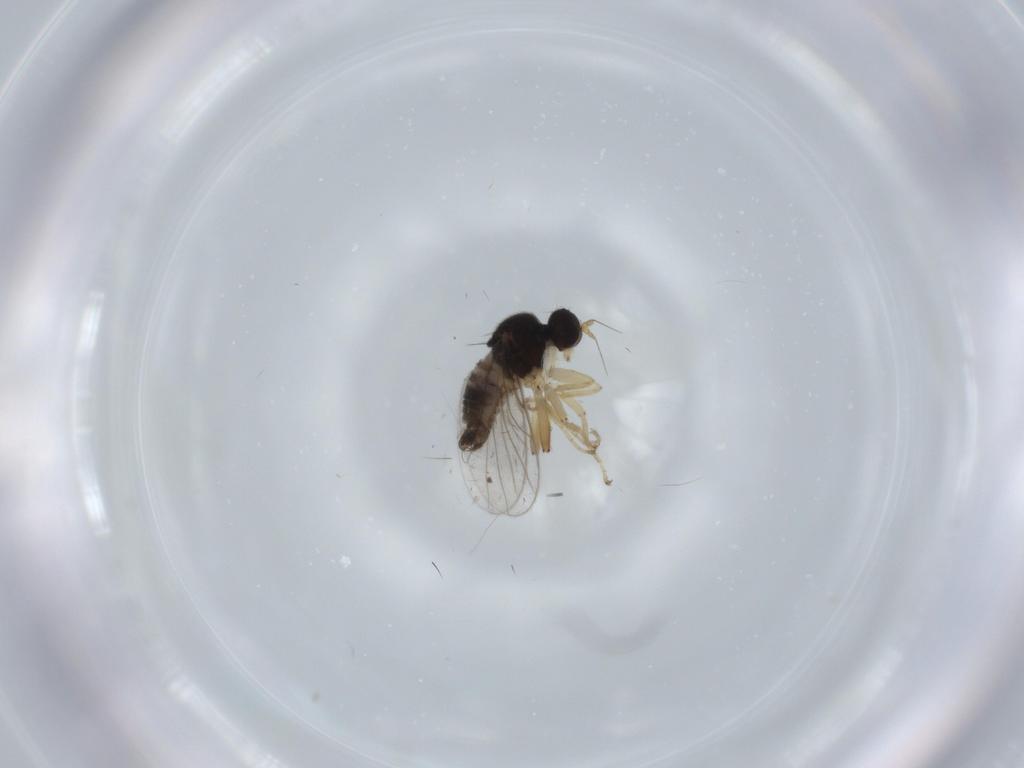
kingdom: Animalia
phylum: Arthropoda
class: Insecta
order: Diptera
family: Hybotidae
